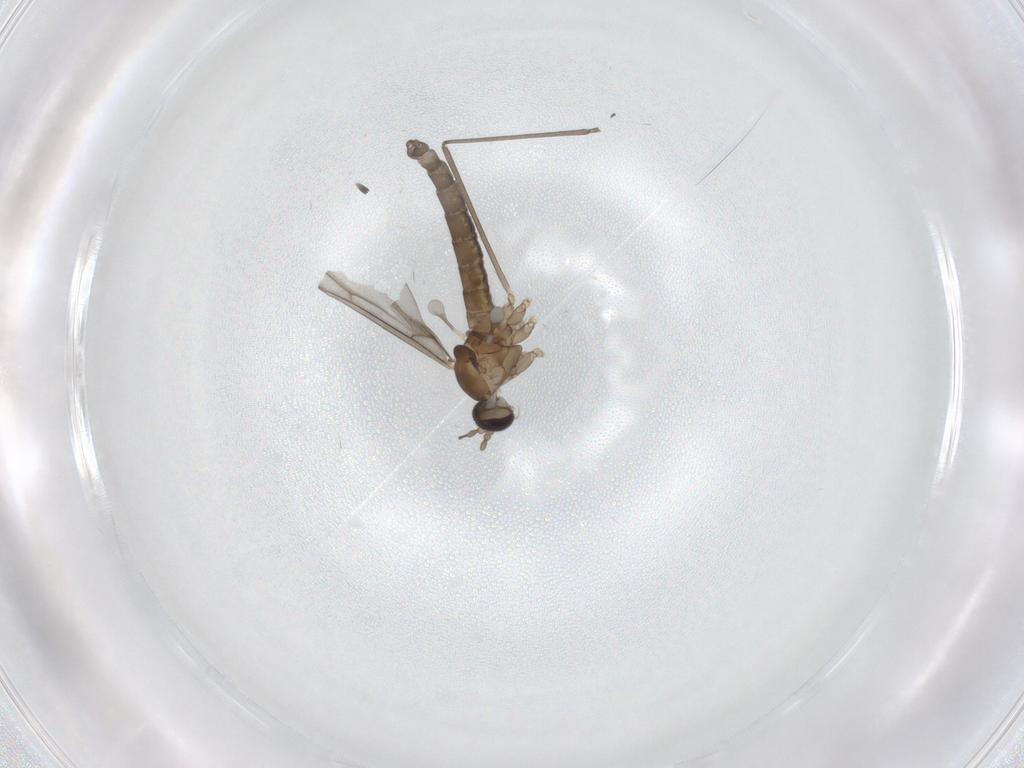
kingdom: Animalia
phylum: Arthropoda
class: Insecta
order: Diptera
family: Cecidomyiidae
